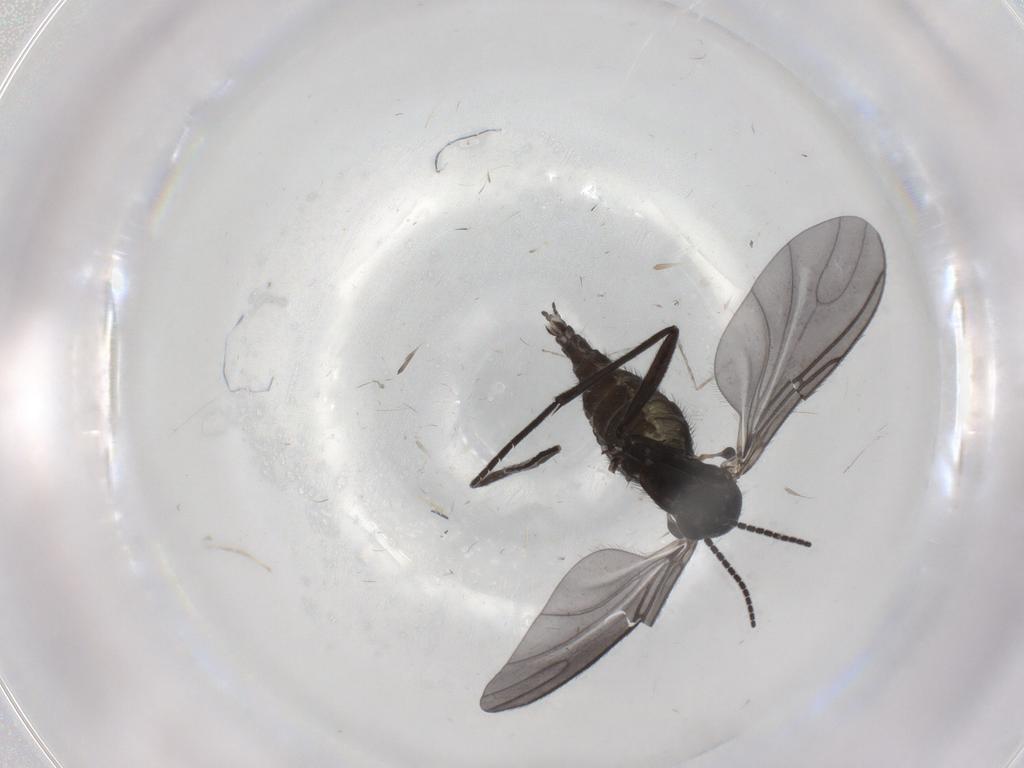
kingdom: Animalia
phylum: Arthropoda
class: Insecta
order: Diptera
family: Sciaridae
